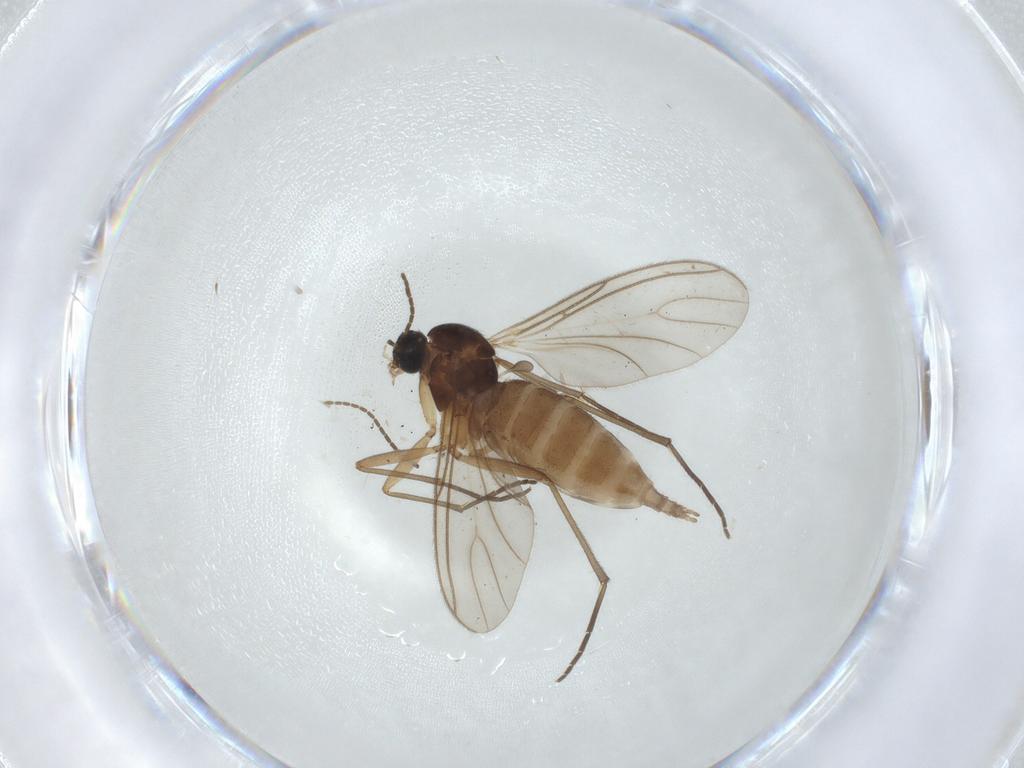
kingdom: Animalia
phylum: Arthropoda
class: Insecta
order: Diptera
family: Sciaridae
